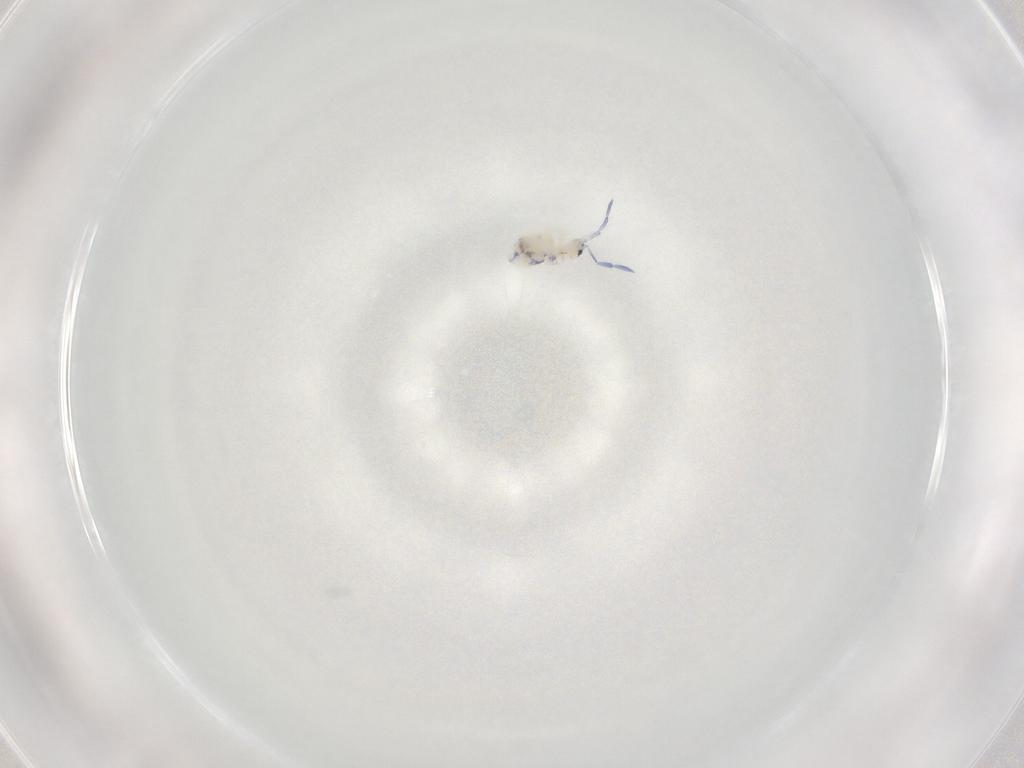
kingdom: Animalia
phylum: Arthropoda
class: Collembola
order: Entomobryomorpha
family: Entomobryidae
